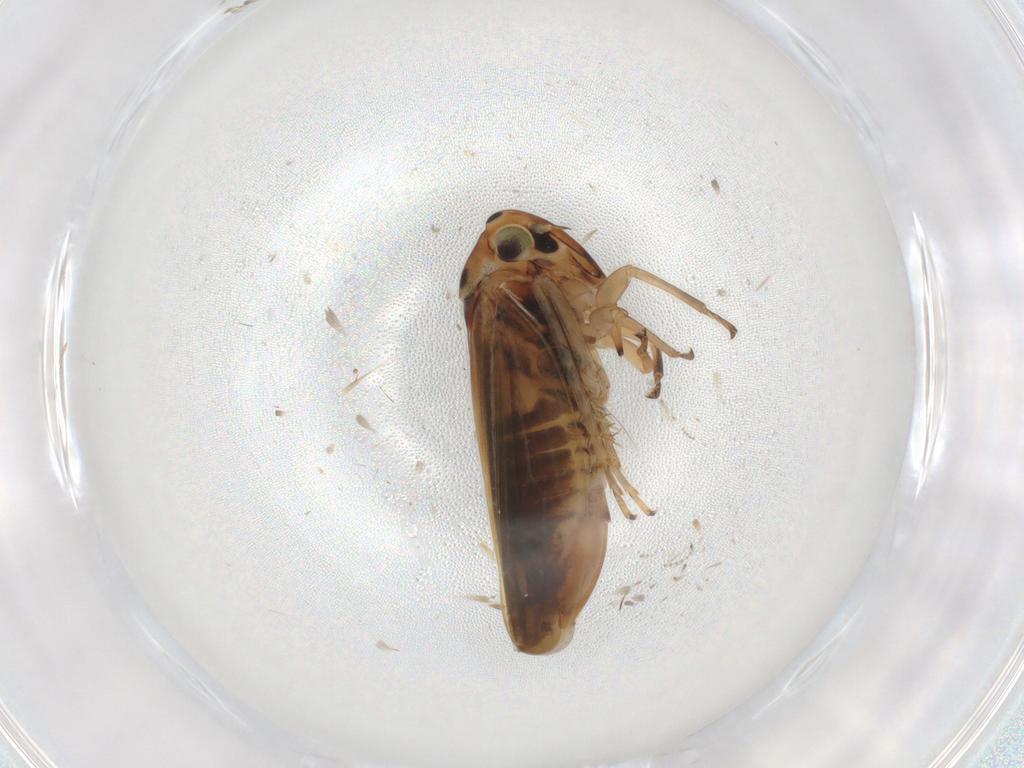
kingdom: Animalia
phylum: Arthropoda
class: Insecta
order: Hemiptera
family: Cicadellidae
